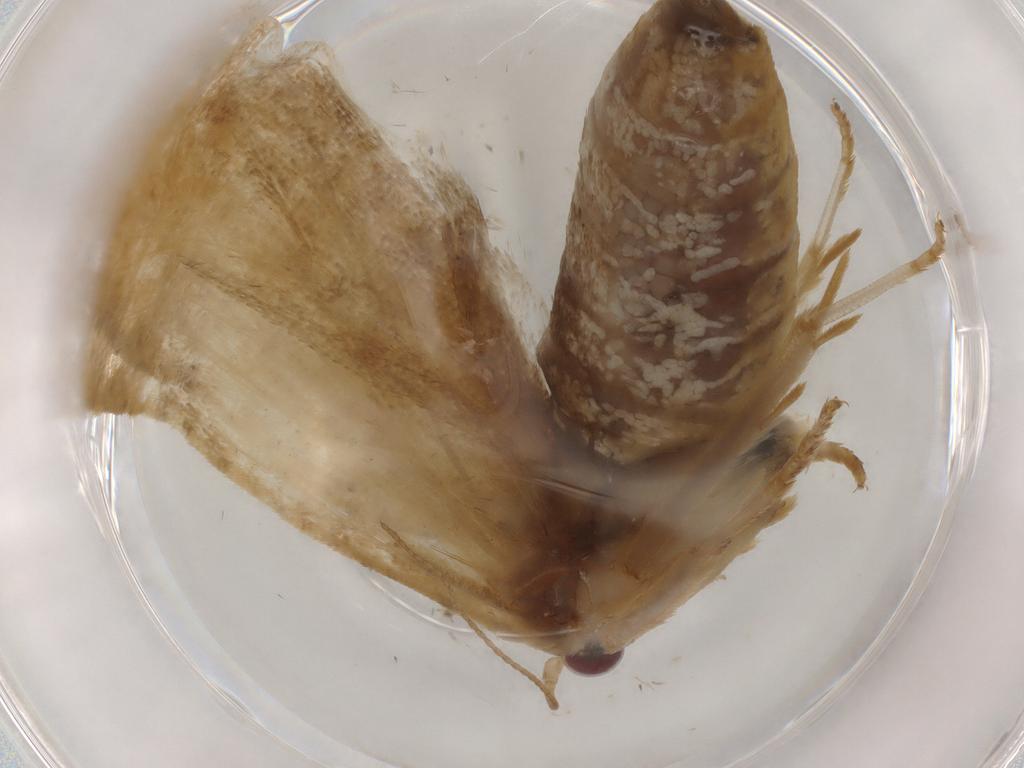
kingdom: Animalia
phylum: Arthropoda
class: Insecta
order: Lepidoptera
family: Tortricidae
